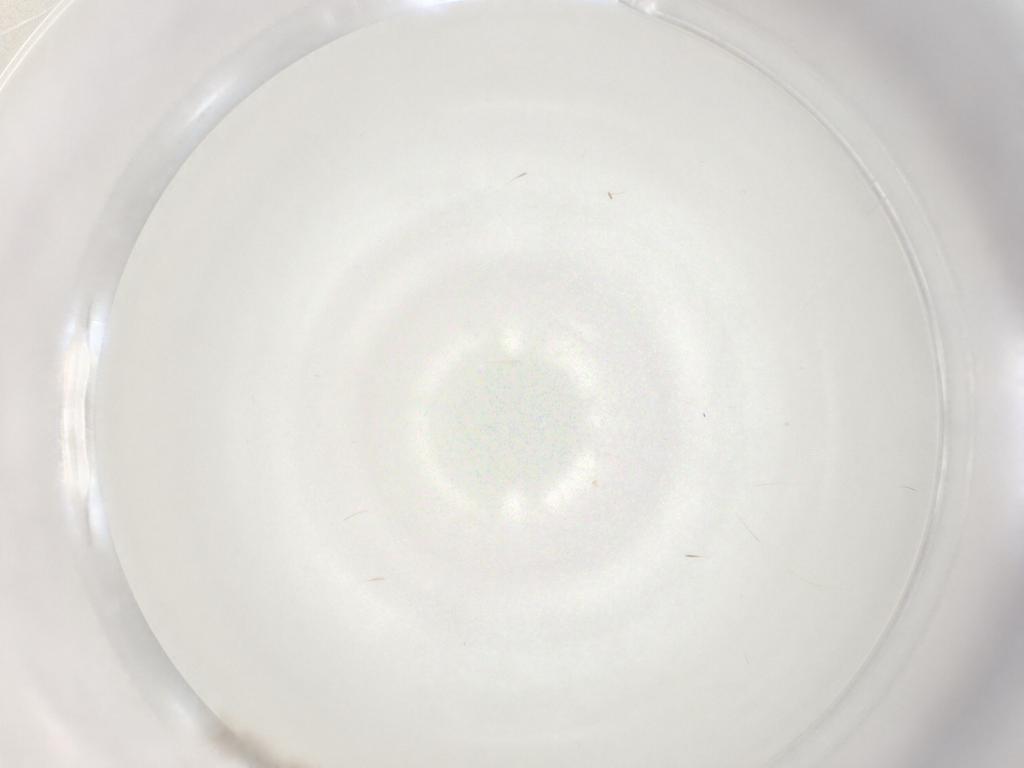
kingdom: Animalia
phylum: Arthropoda
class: Insecta
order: Diptera
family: Cecidomyiidae
